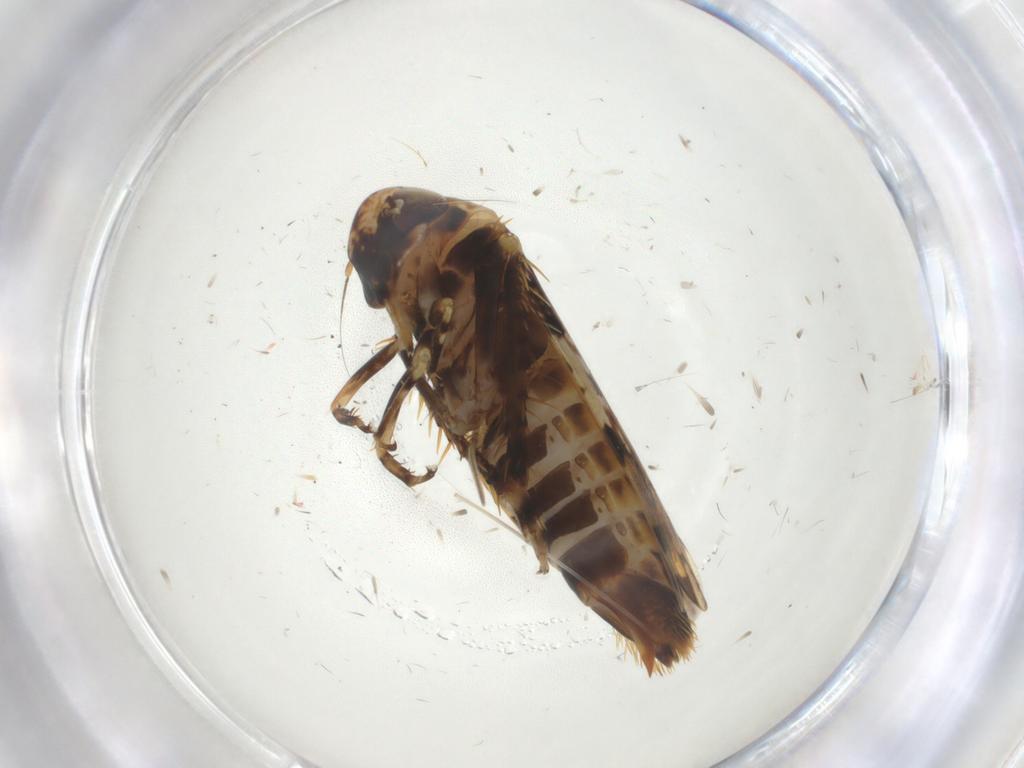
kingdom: Animalia
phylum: Arthropoda
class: Insecta
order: Hemiptera
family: Cicadellidae
